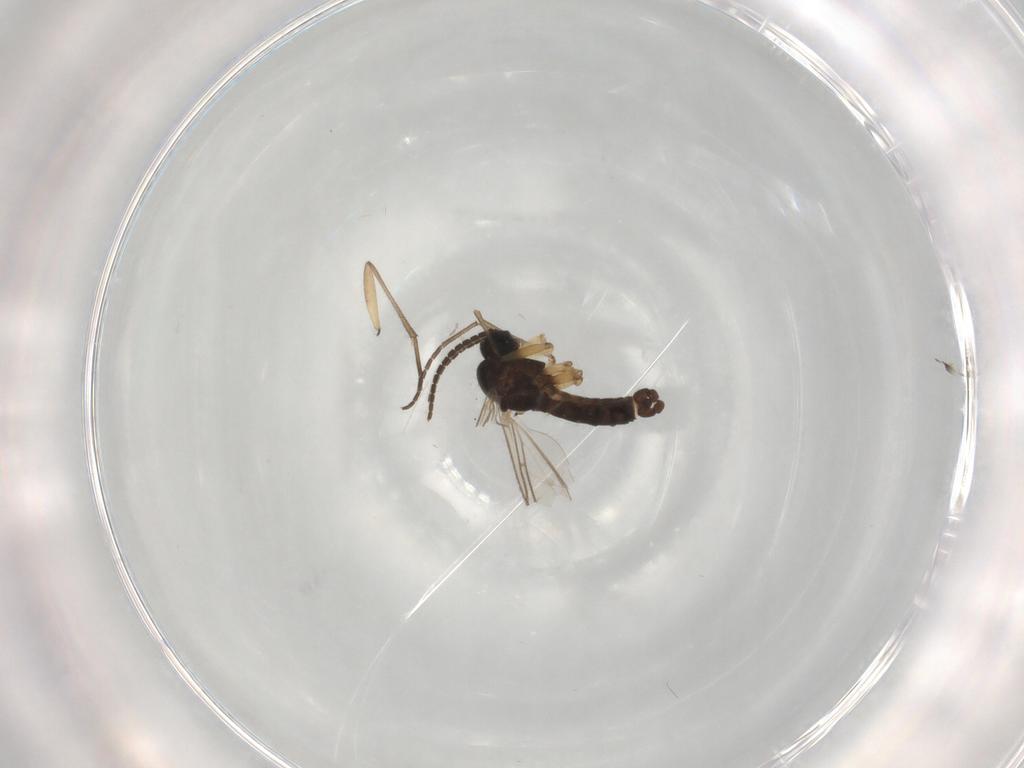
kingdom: Animalia
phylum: Arthropoda
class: Insecta
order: Diptera
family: Sciaridae
